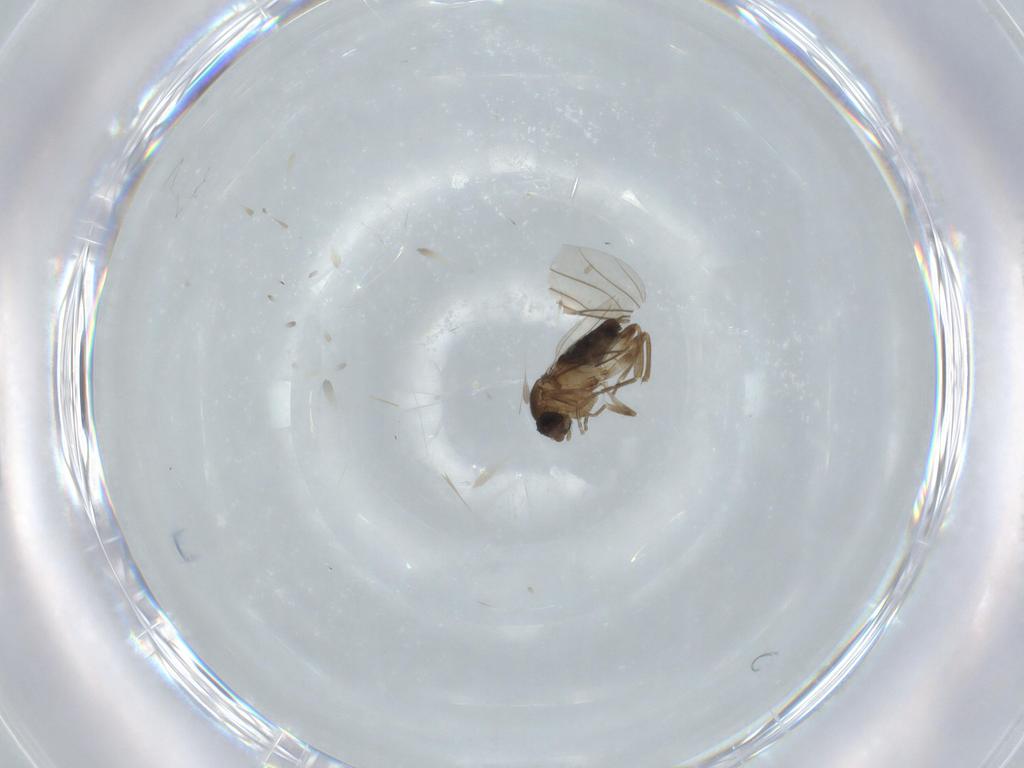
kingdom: Animalia
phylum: Arthropoda
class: Insecta
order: Diptera
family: Phoridae
